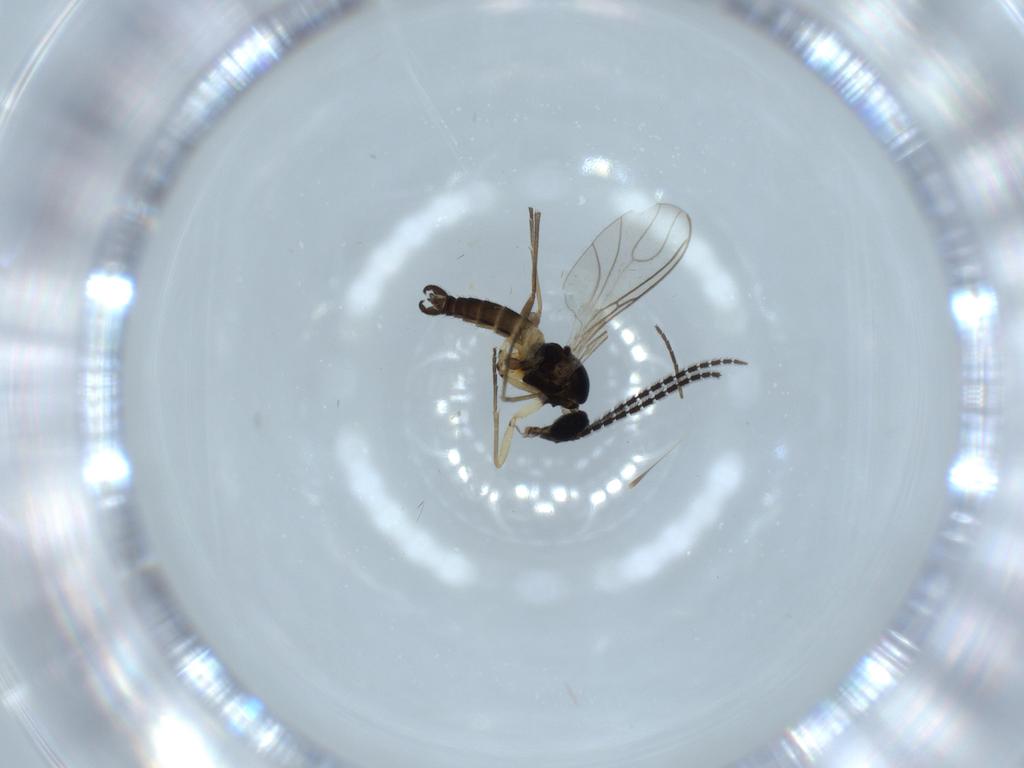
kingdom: Animalia
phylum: Arthropoda
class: Insecta
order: Diptera
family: Sciaridae
